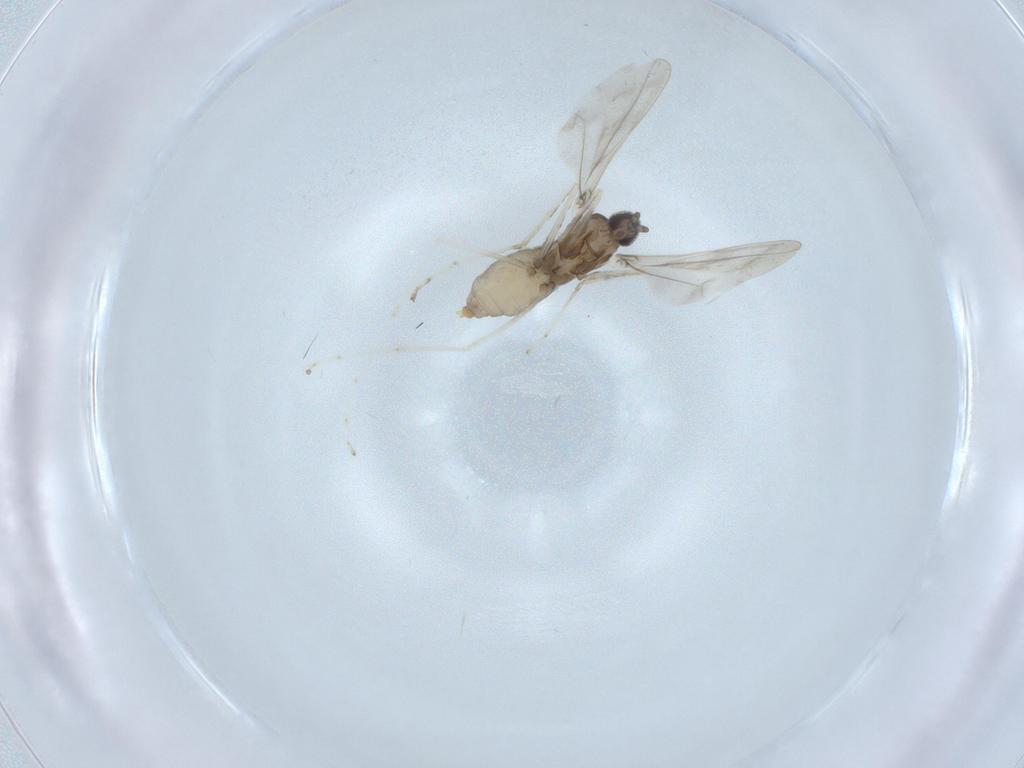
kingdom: Animalia
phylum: Arthropoda
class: Insecta
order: Diptera
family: Cecidomyiidae
